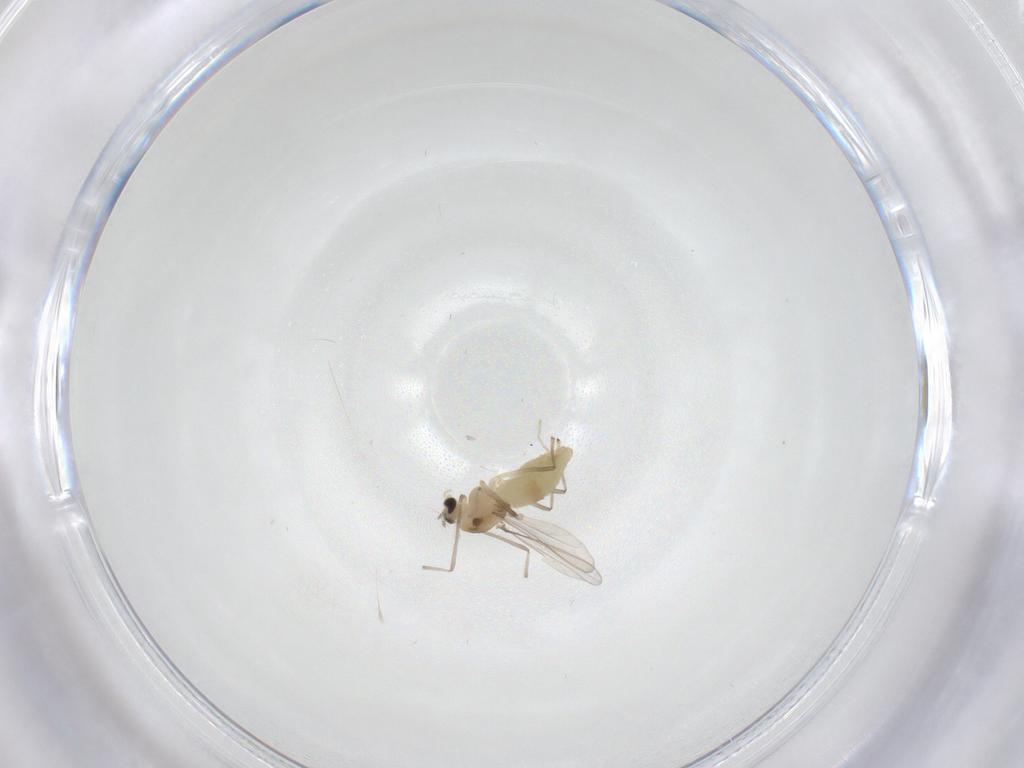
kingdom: Animalia
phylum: Arthropoda
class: Insecta
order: Diptera
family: Chironomidae
